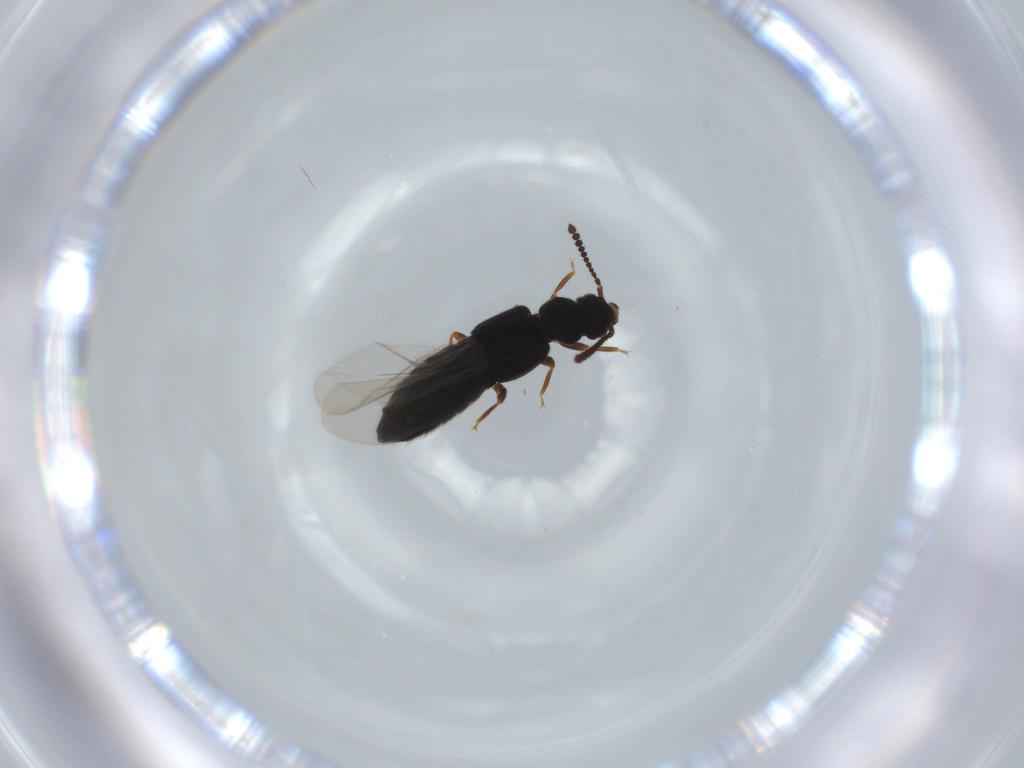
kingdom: Animalia
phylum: Arthropoda
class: Insecta
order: Coleoptera
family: Staphylinidae
